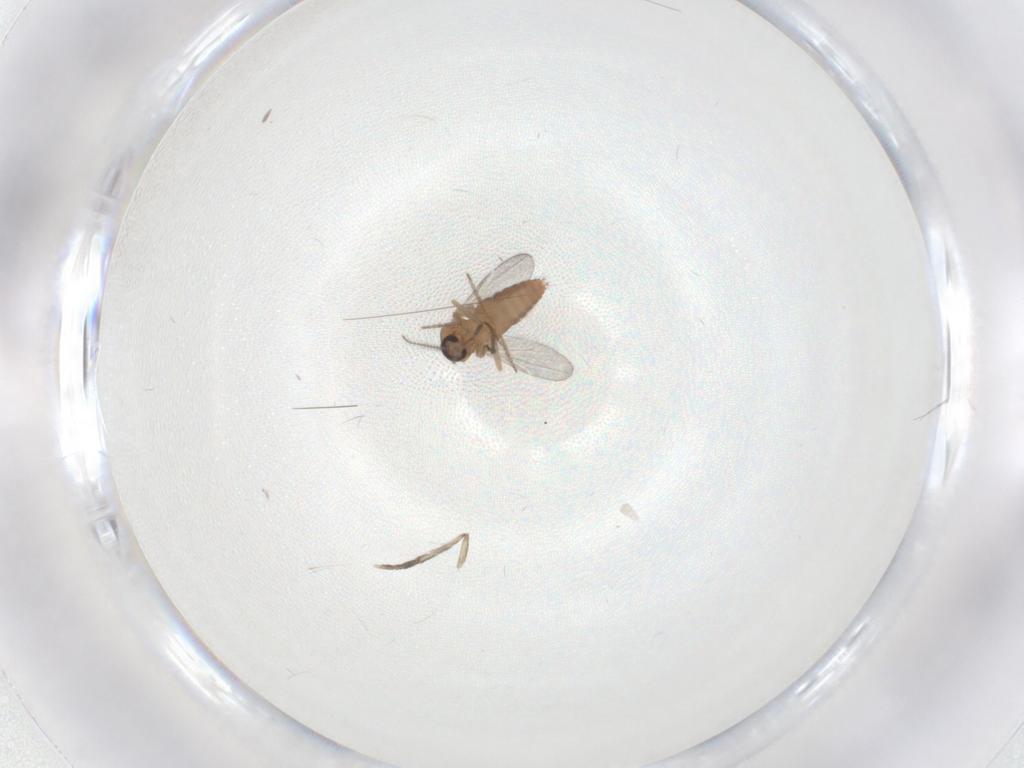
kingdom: Animalia
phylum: Arthropoda
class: Insecta
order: Diptera
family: Ceratopogonidae
